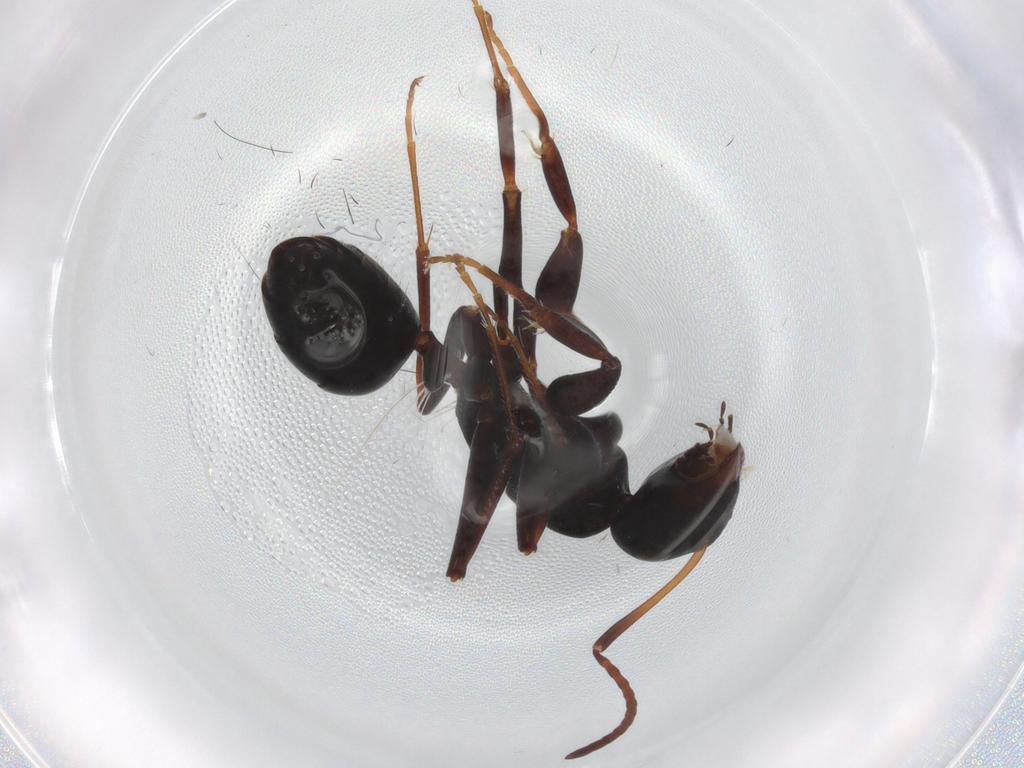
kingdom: Animalia
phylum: Arthropoda
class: Insecta
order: Hymenoptera
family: Formicidae
